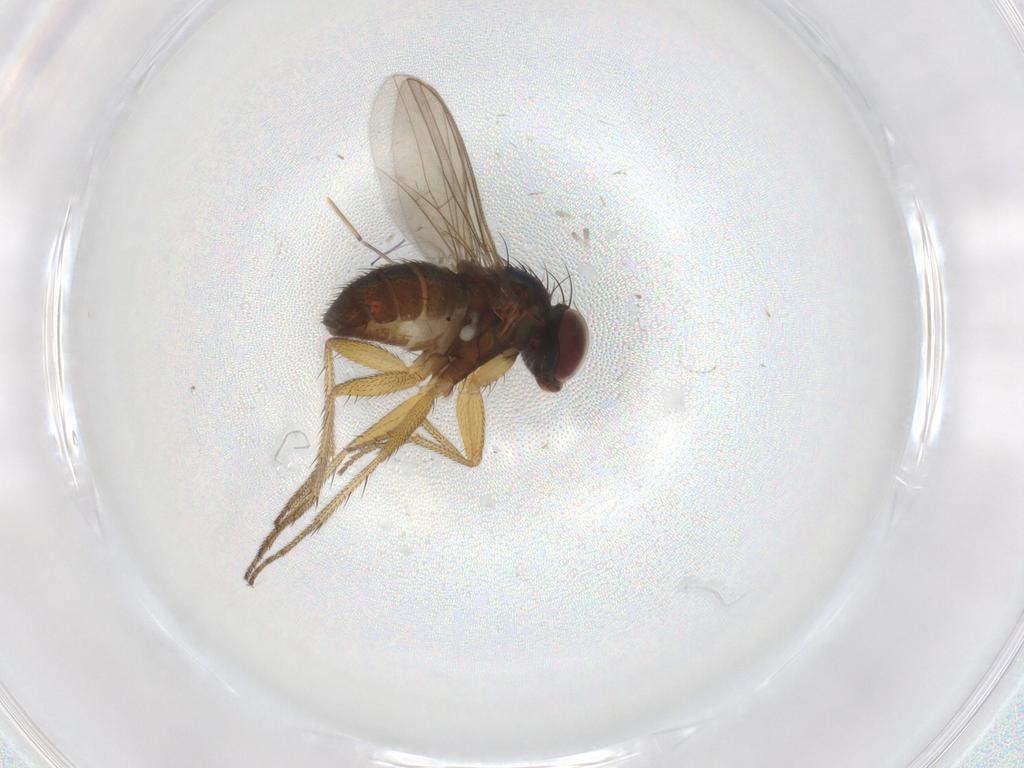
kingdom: Animalia
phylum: Arthropoda
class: Insecta
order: Diptera
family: Dolichopodidae
